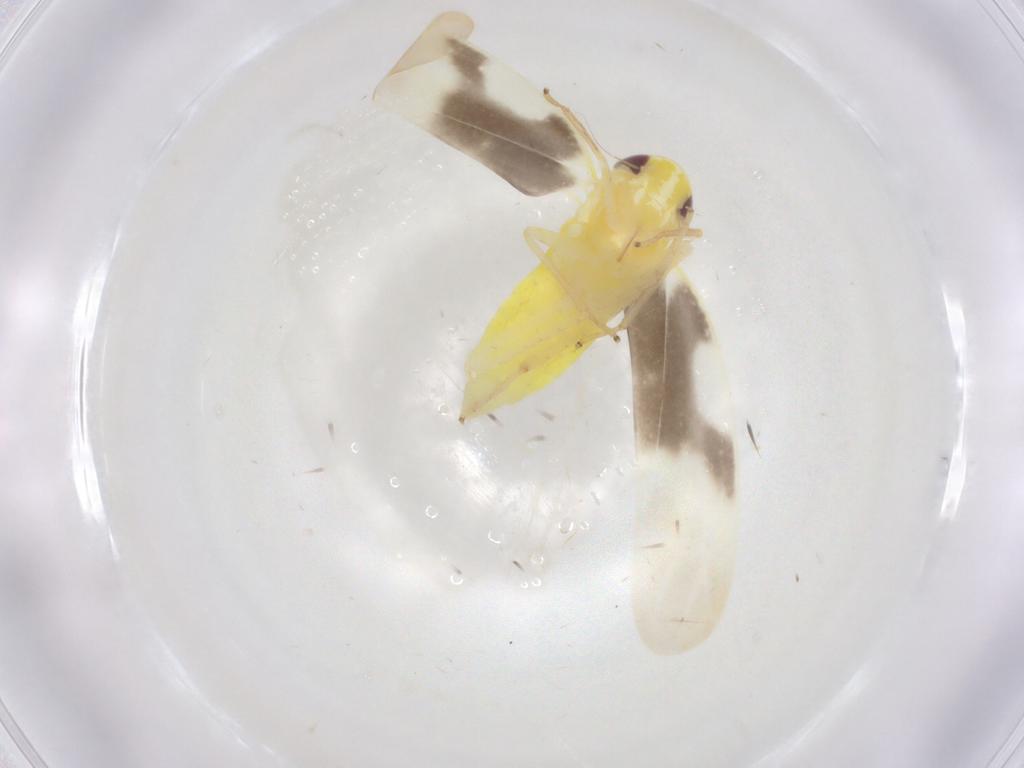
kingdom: Animalia
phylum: Arthropoda
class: Insecta
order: Hemiptera
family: Cicadellidae
